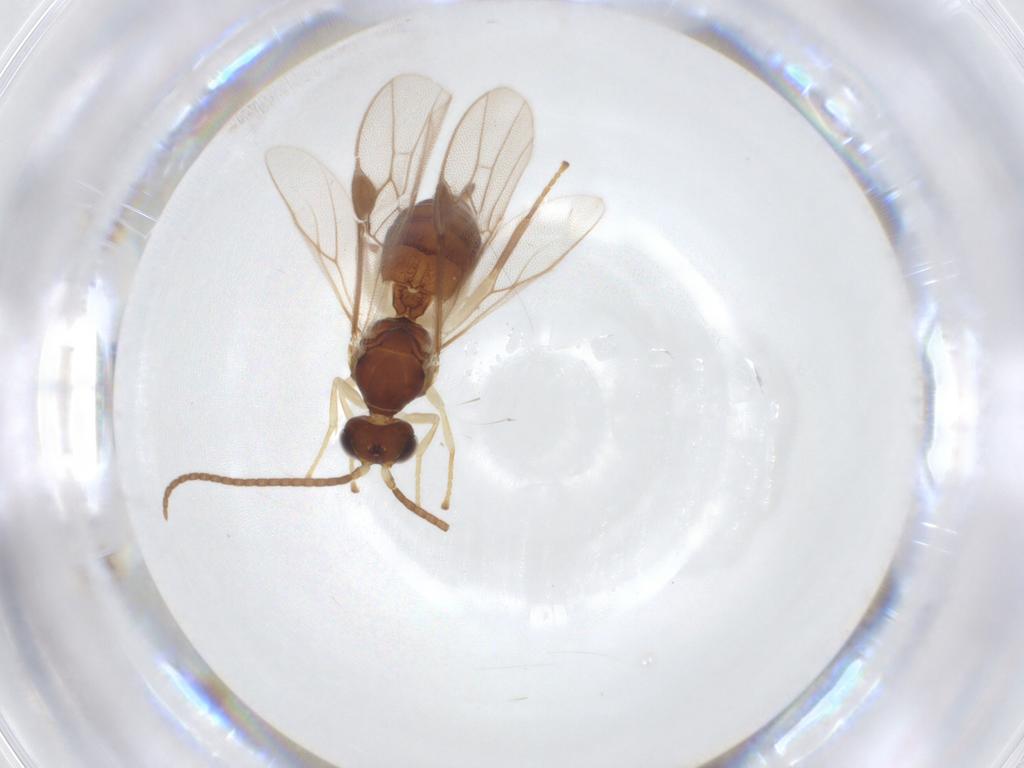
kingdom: Animalia
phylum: Arthropoda
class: Insecta
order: Hymenoptera
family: Braconidae
